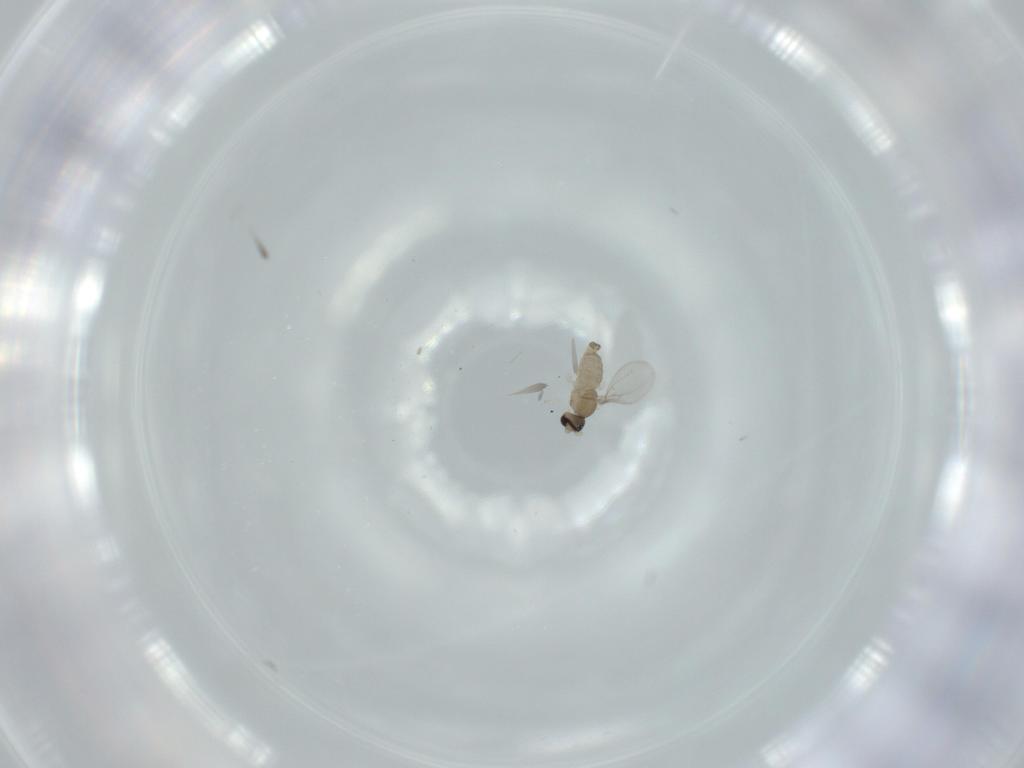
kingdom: Animalia
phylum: Arthropoda
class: Insecta
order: Diptera
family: Cecidomyiidae
